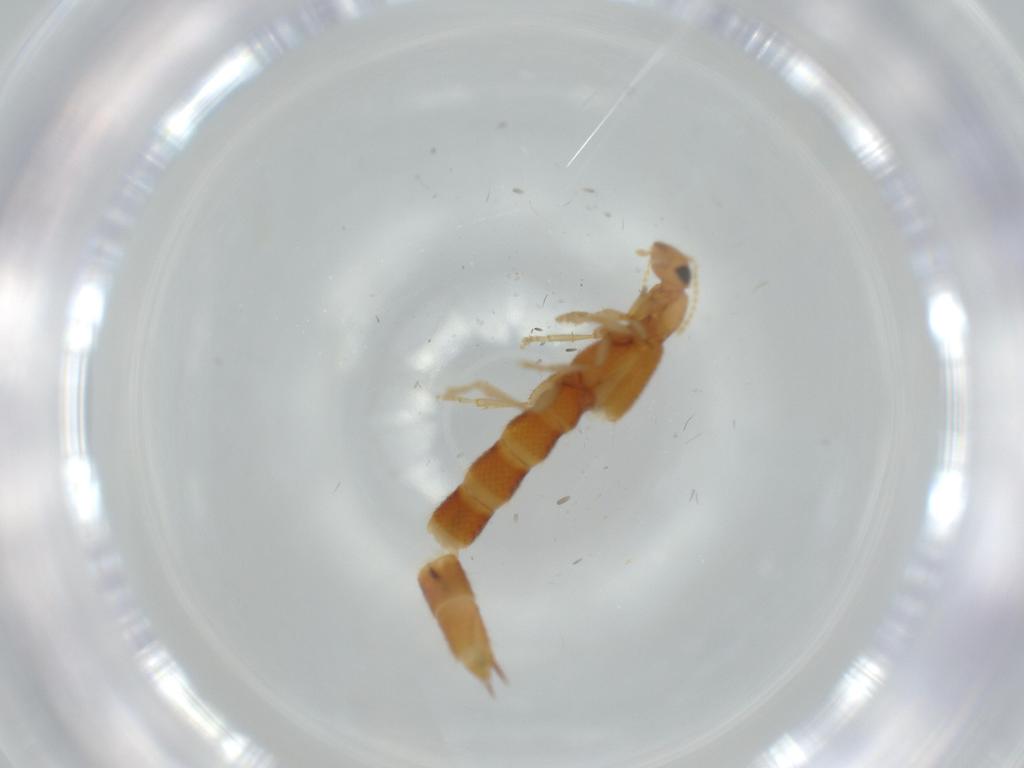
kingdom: Animalia
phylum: Arthropoda
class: Insecta
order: Coleoptera
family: Staphylinidae
